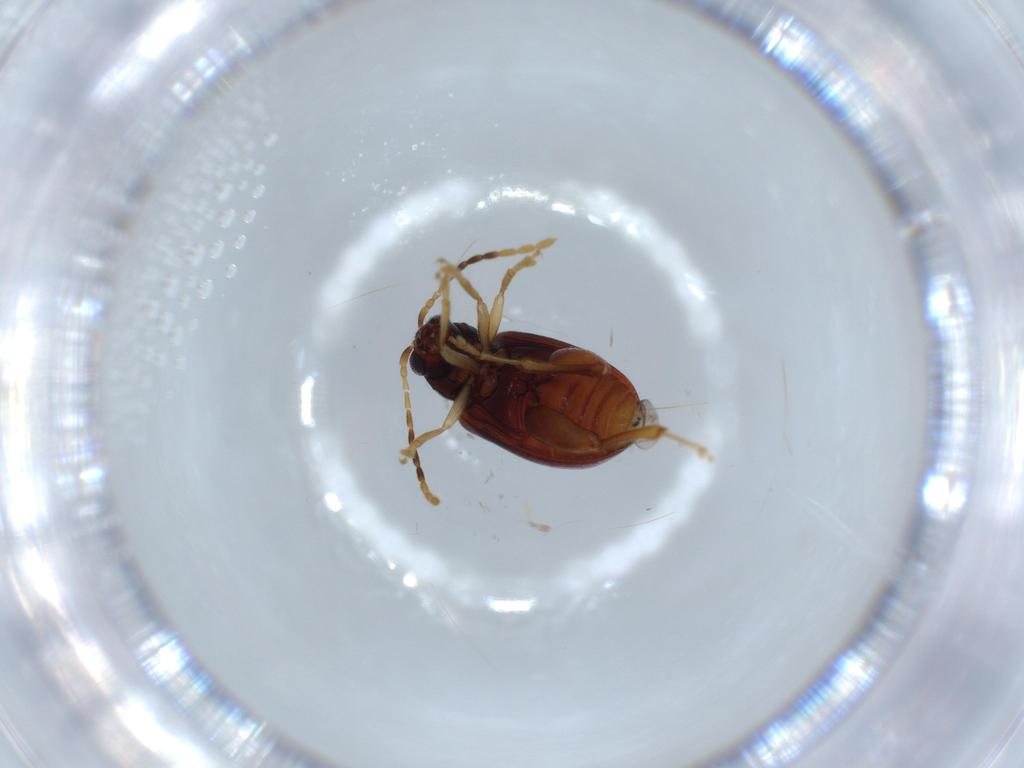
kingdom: Animalia
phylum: Arthropoda
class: Insecta
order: Coleoptera
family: Chrysomelidae
